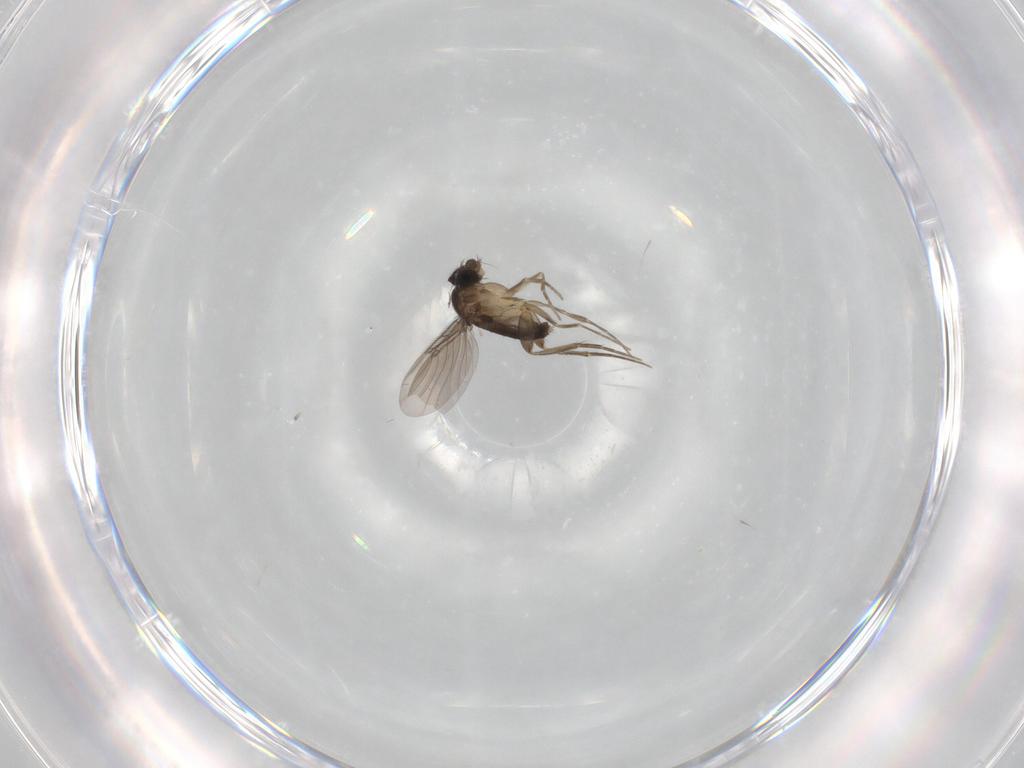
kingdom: Animalia
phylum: Arthropoda
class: Insecta
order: Diptera
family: Phoridae
